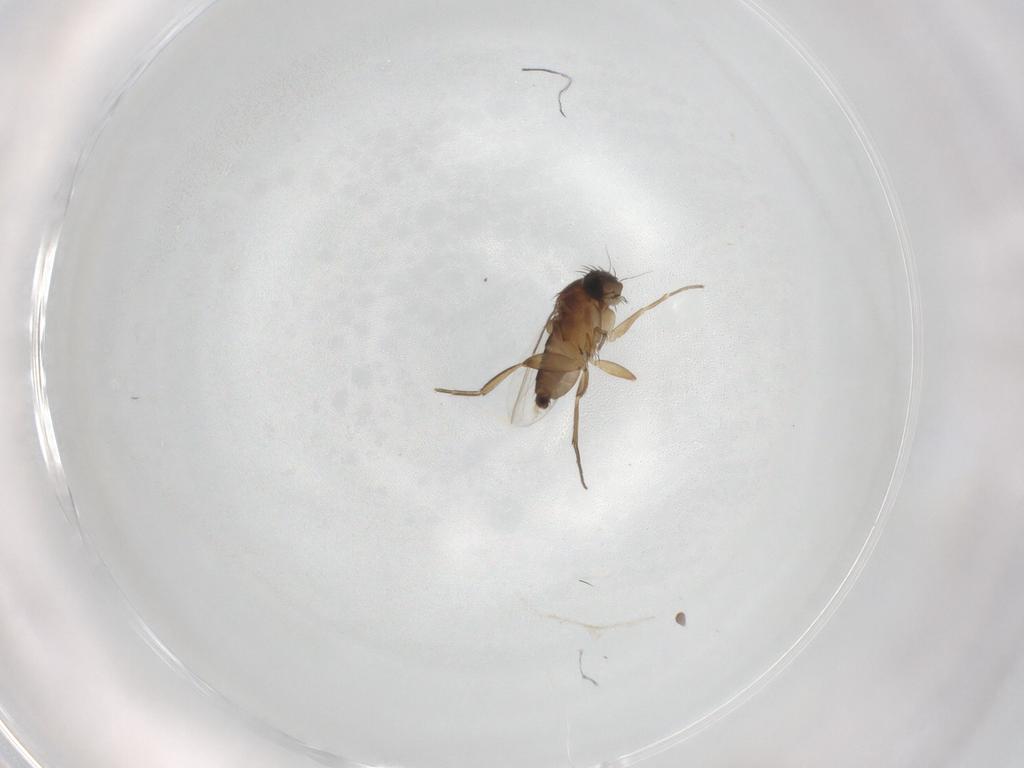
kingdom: Animalia
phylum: Arthropoda
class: Insecta
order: Diptera
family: Phoridae
